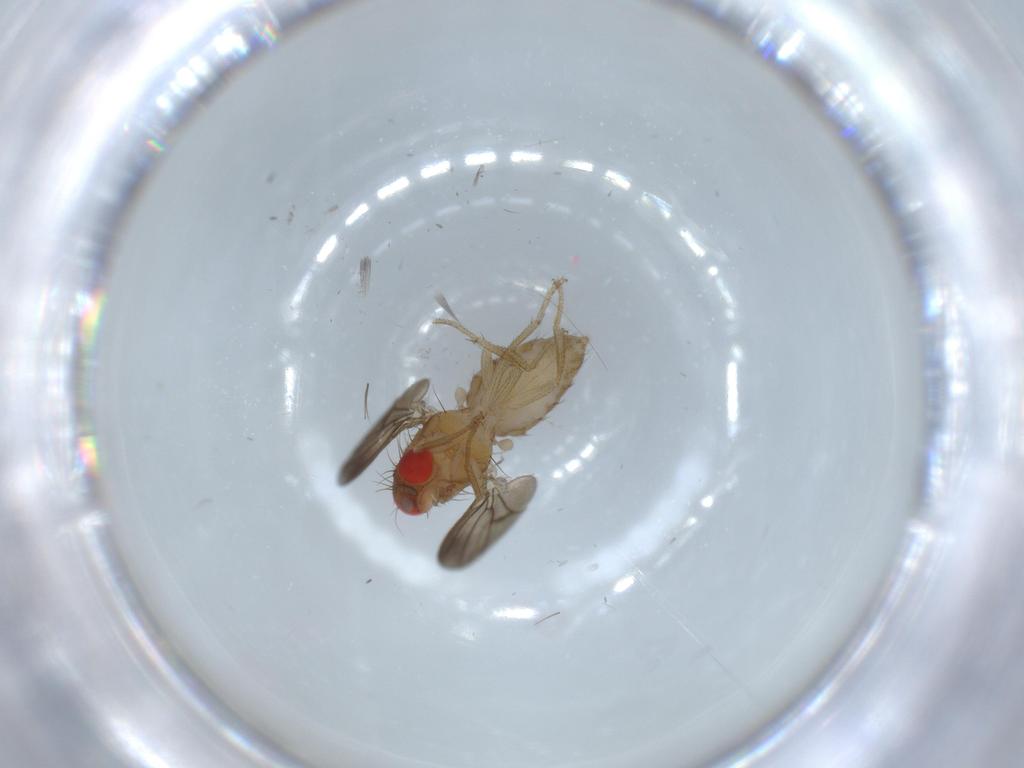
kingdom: Animalia
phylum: Arthropoda
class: Insecta
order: Diptera
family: Drosophilidae
